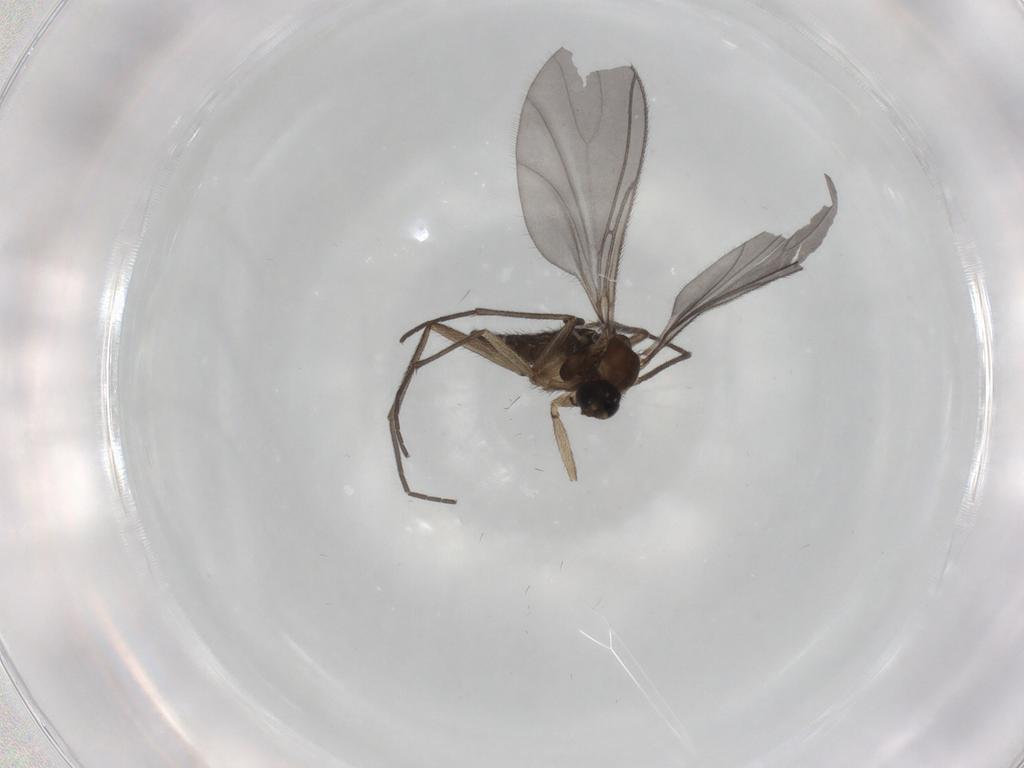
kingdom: Animalia
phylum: Arthropoda
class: Insecta
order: Diptera
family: Sciaridae
